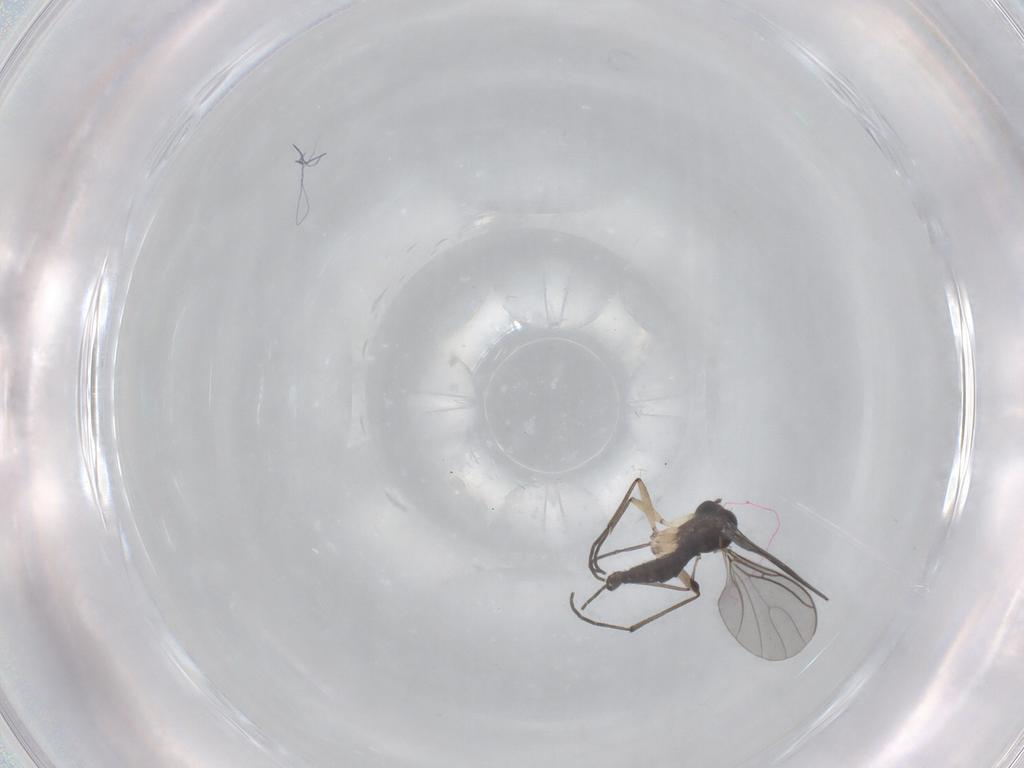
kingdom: Animalia
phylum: Arthropoda
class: Insecta
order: Diptera
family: Sciaridae
